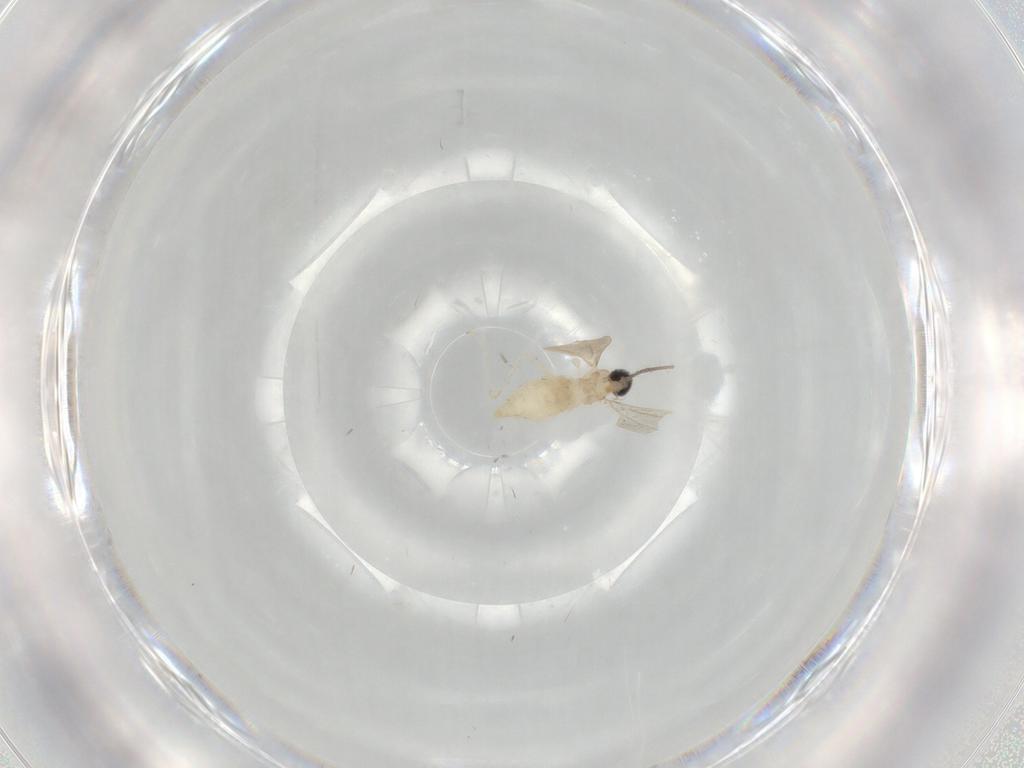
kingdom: Animalia
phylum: Arthropoda
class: Insecta
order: Diptera
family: Cecidomyiidae
